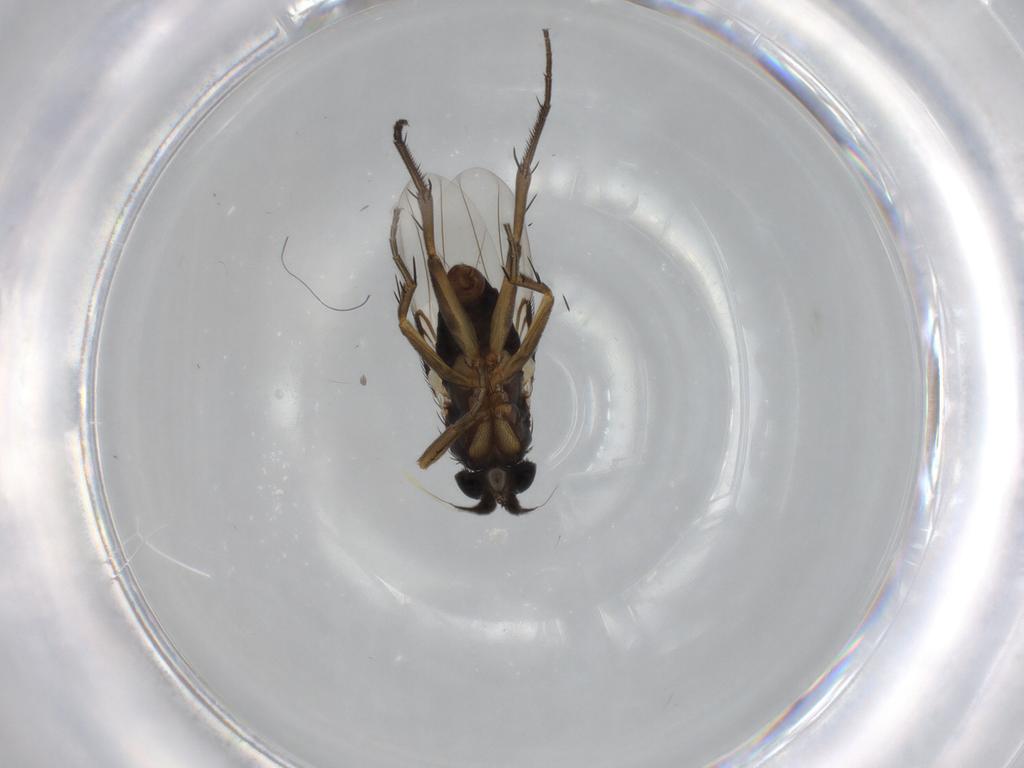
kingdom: Animalia
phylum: Arthropoda
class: Insecta
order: Diptera
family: Phoridae
